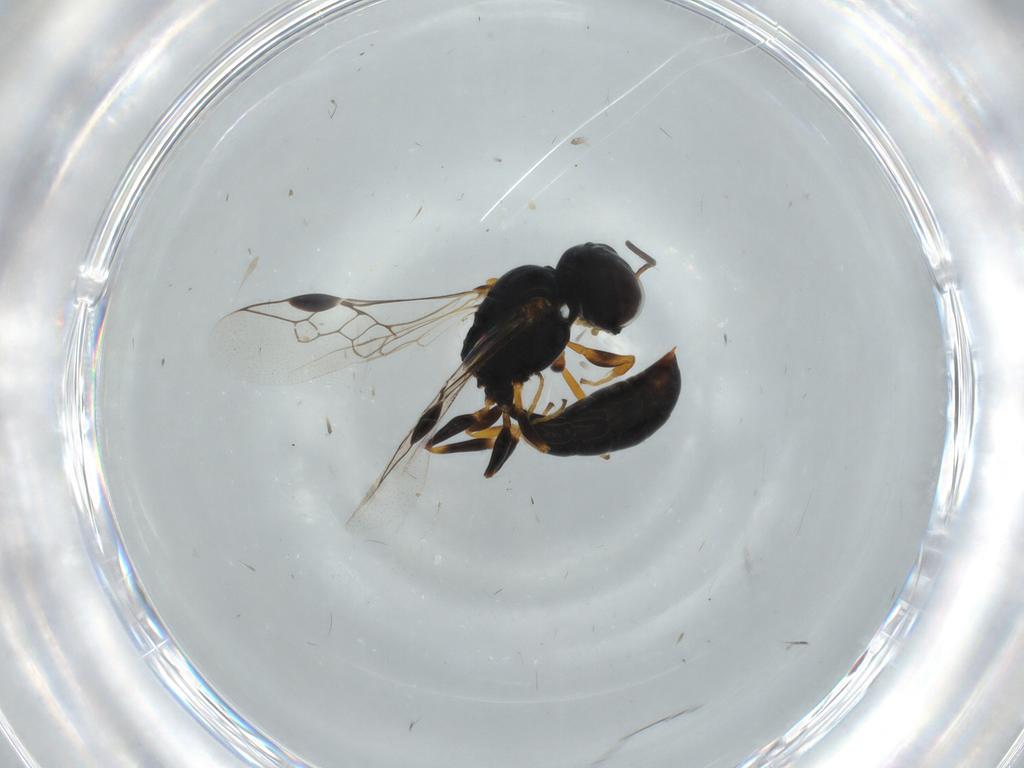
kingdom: Animalia
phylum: Arthropoda
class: Insecta
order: Hymenoptera
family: Pemphredonidae
